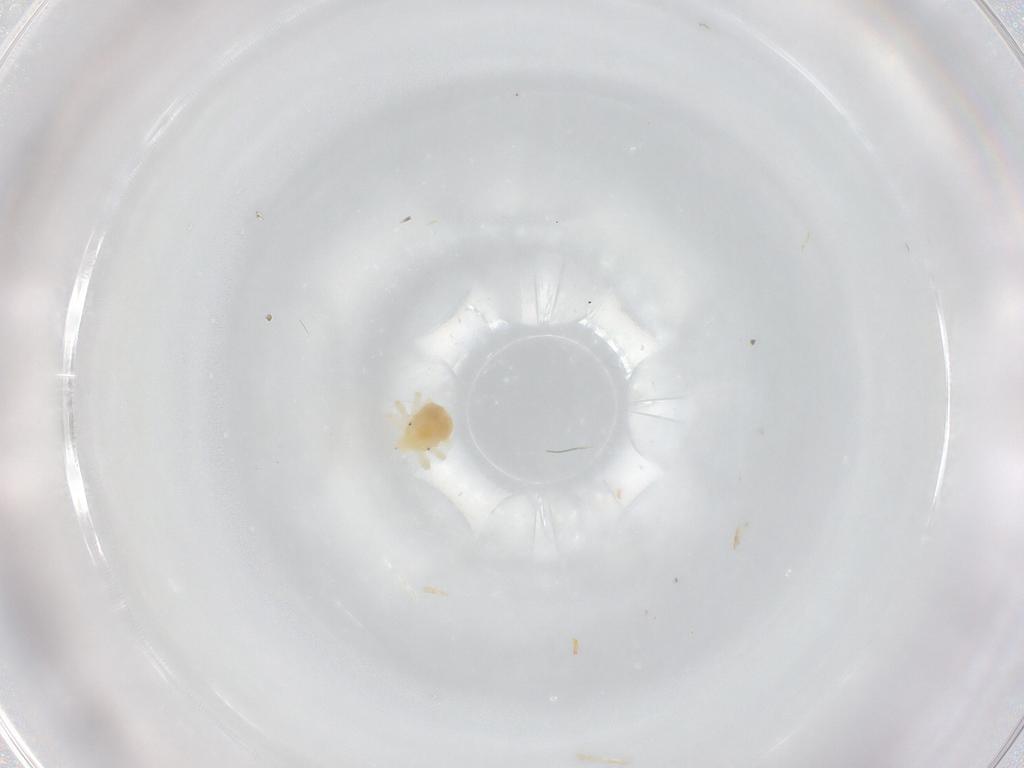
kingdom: Animalia
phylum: Arthropoda
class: Arachnida
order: Trombidiformes
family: Anystidae
